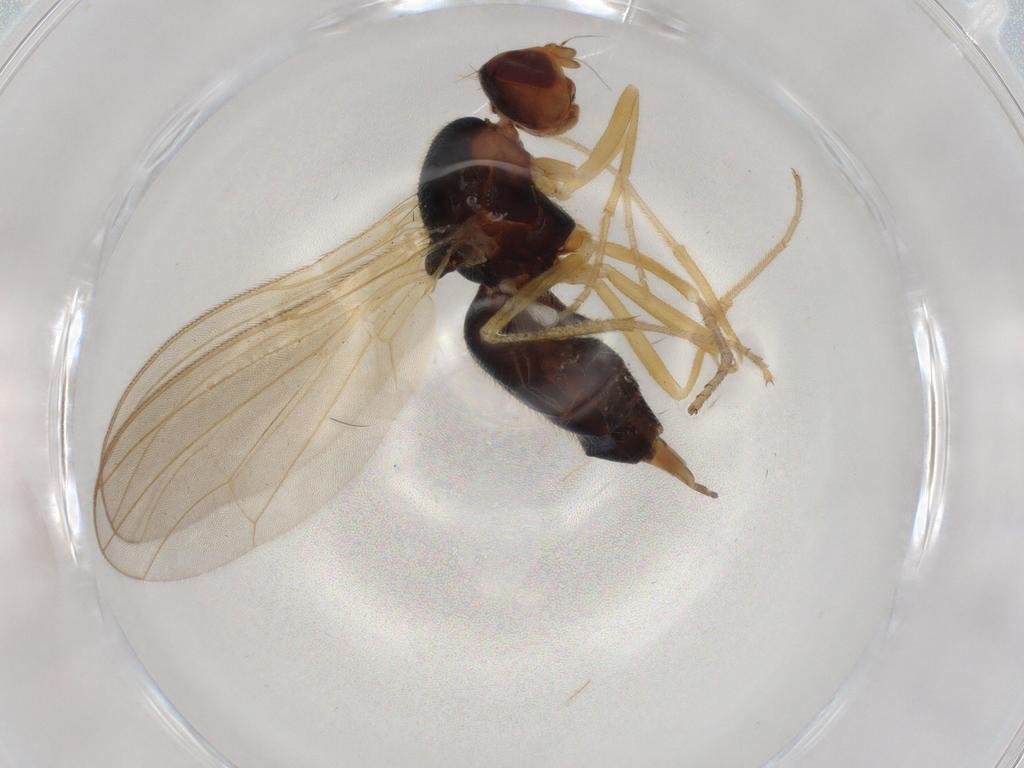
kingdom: Animalia
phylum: Arthropoda
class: Insecta
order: Diptera
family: Psilidae
